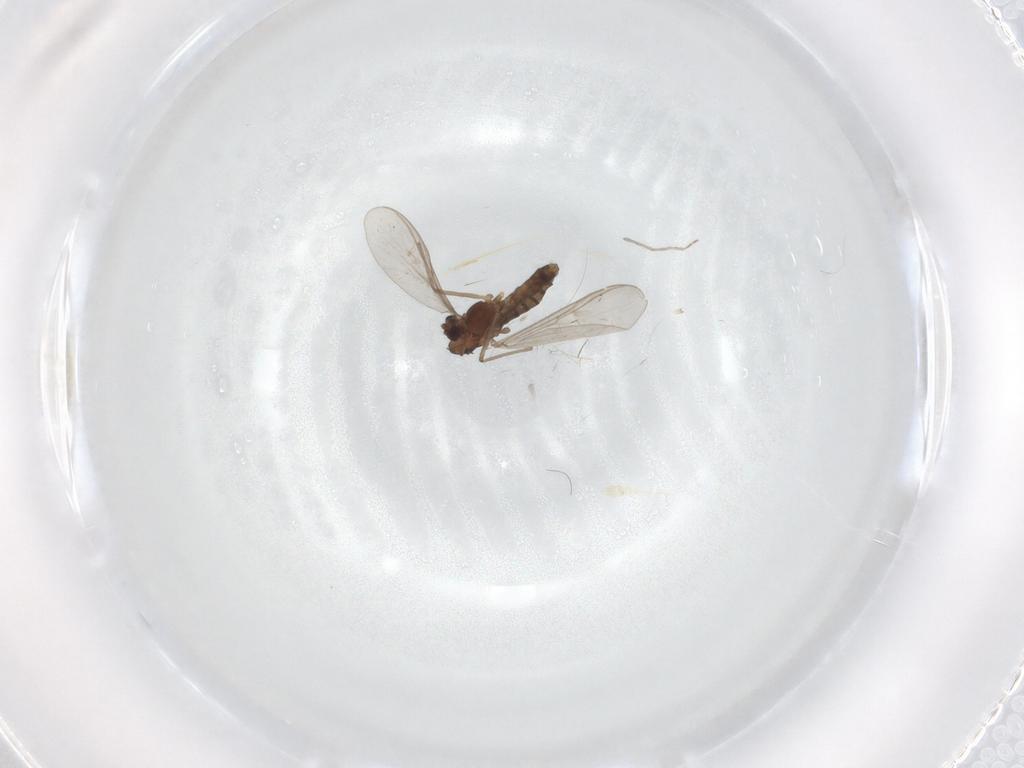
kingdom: Animalia
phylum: Arthropoda
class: Insecta
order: Diptera
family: Chironomidae
